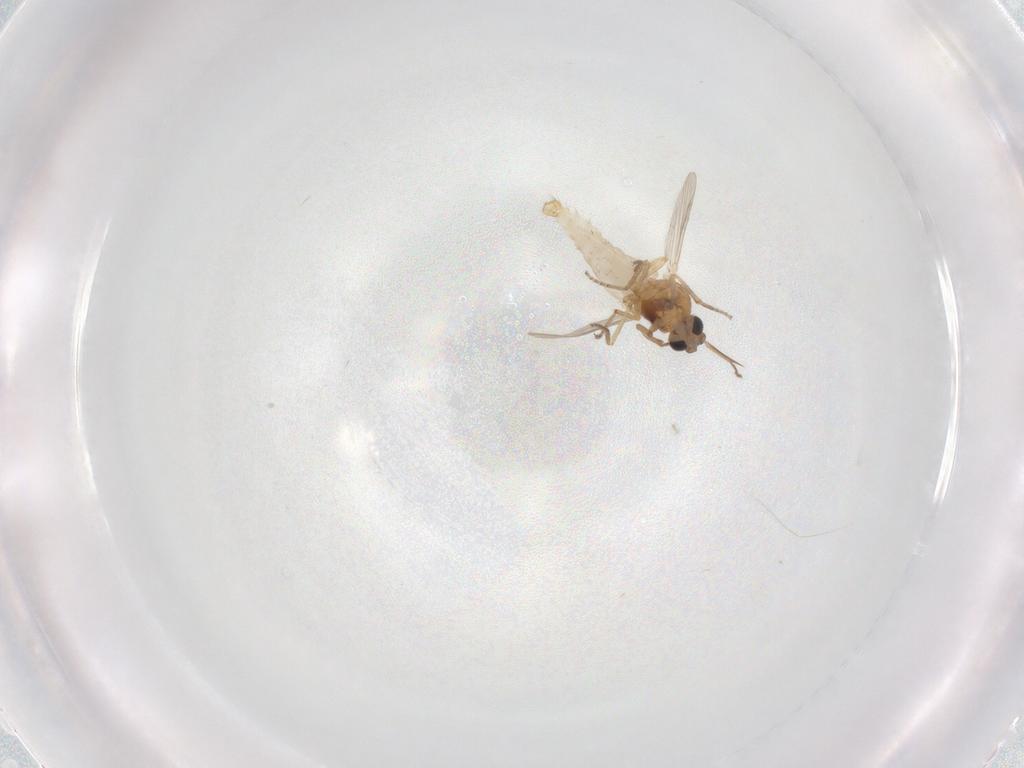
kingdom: Animalia
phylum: Arthropoda
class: Insecta
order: Diptera
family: Ceratopogonidae
